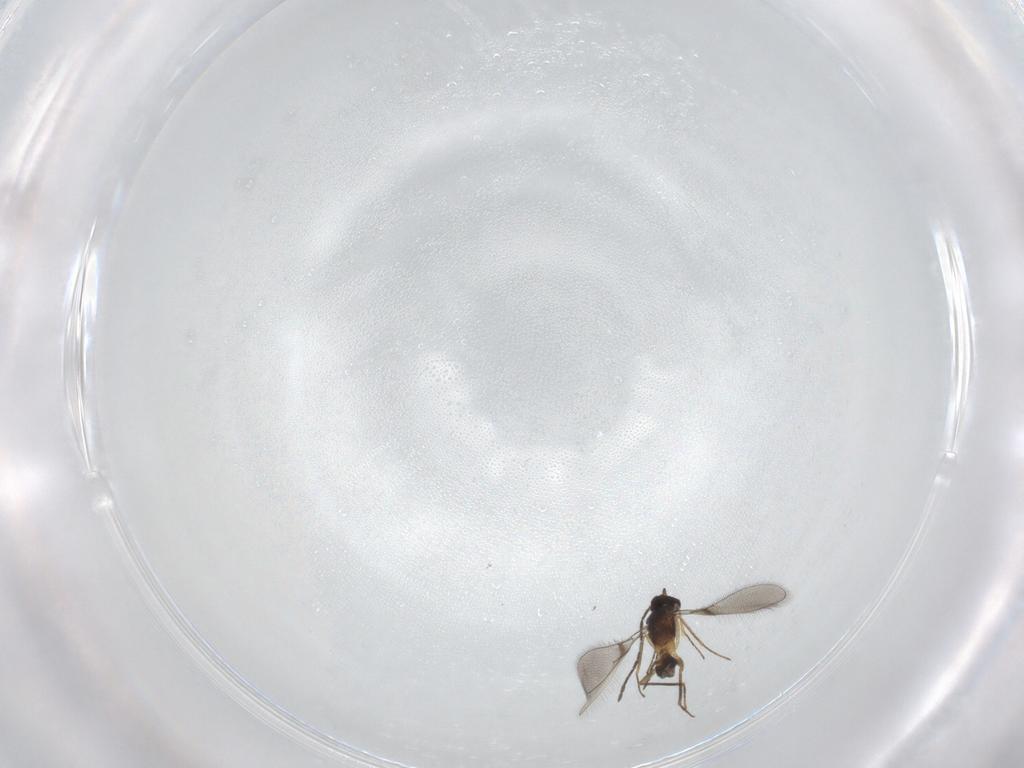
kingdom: Animalia
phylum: Arthropoda
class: Insecta
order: Hymenoptera
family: Mymaridae
